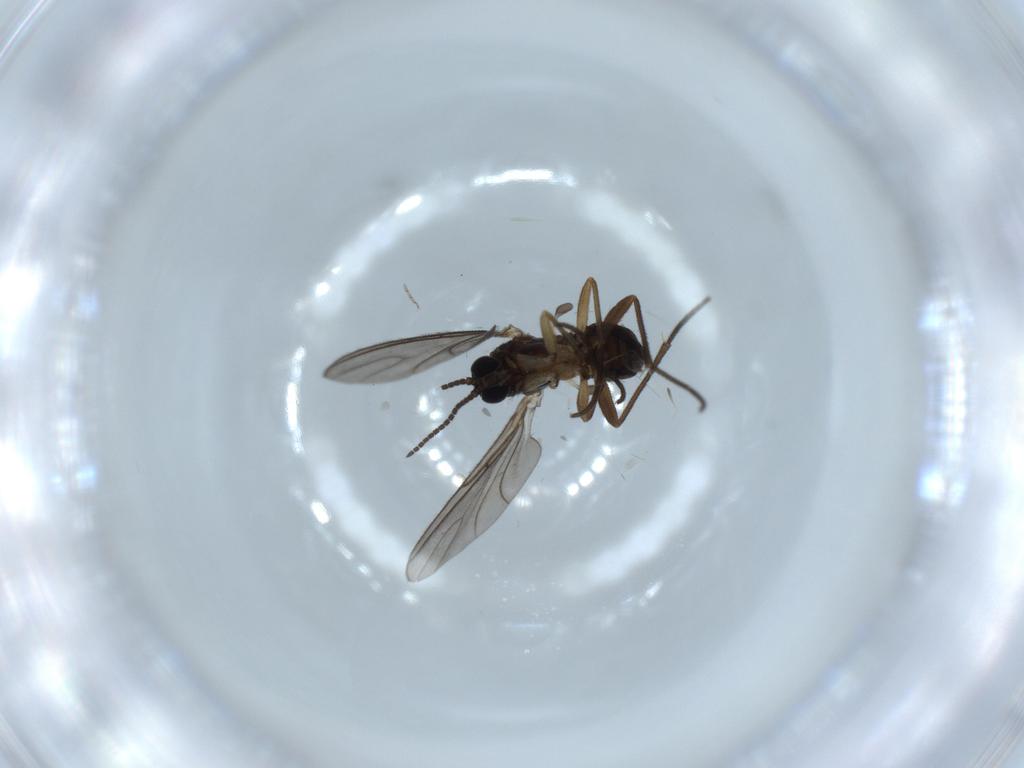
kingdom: Animalia
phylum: Arthropoda
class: Insecta
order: Diptera
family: Sciaridae
